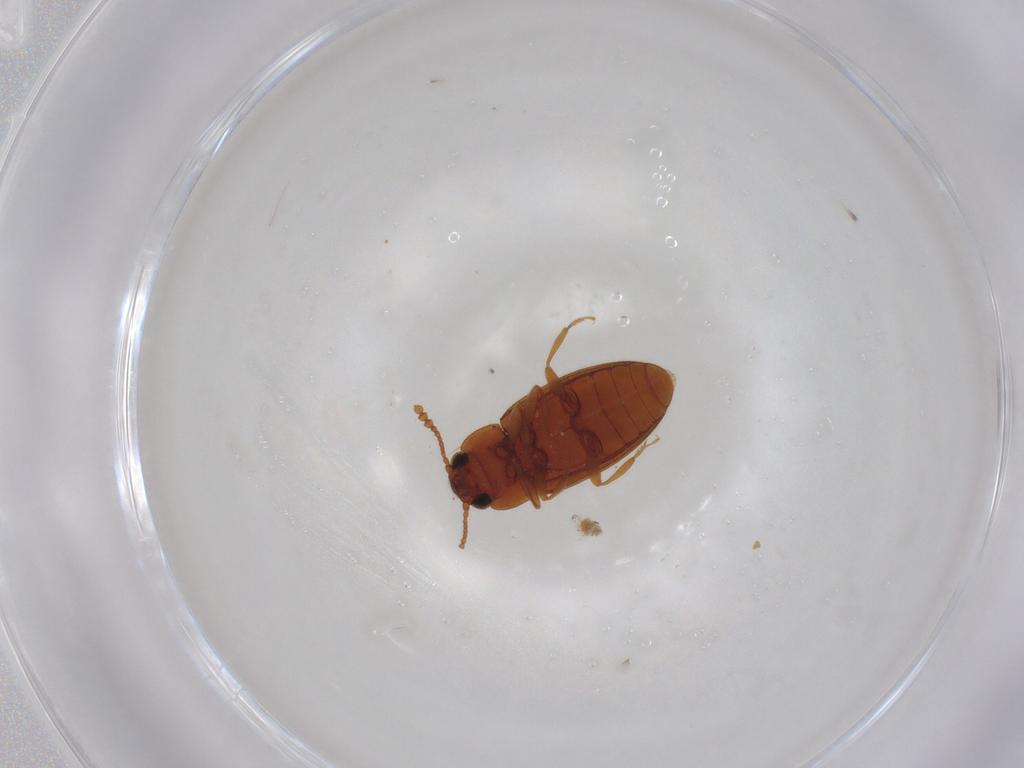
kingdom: Animalia
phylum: Arthropoda
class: Insecta
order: Coleoptera
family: Erotylidae
